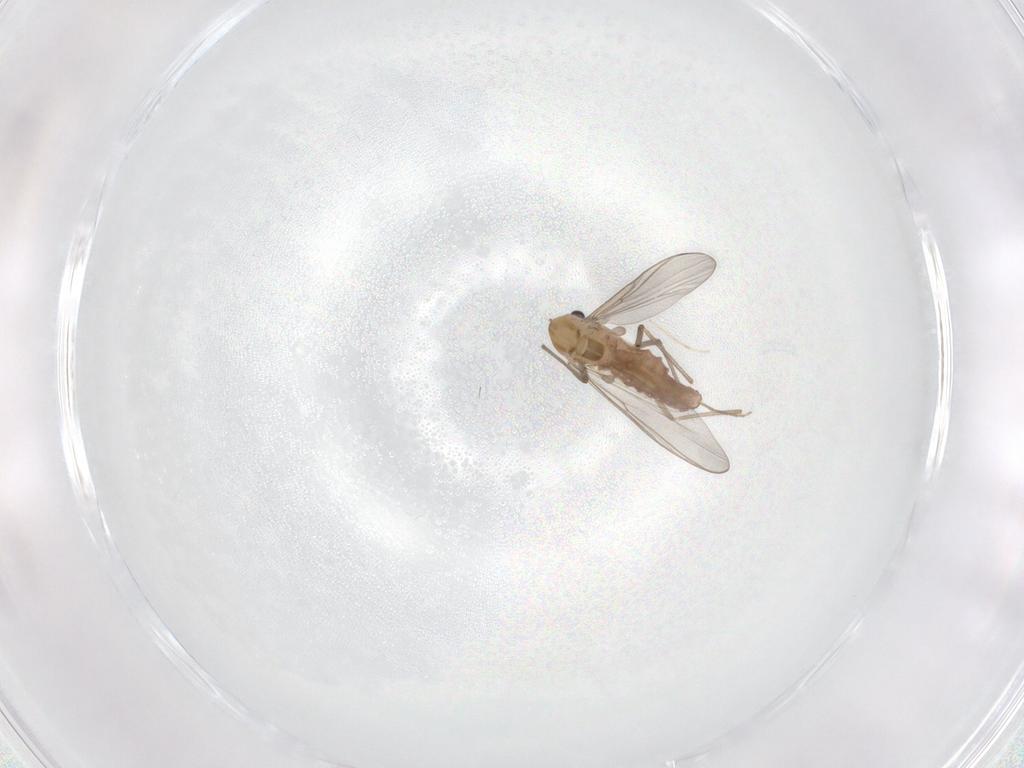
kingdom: Animalia
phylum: Arthropoda
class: Insecta
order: Diptera
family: Chironomidae
